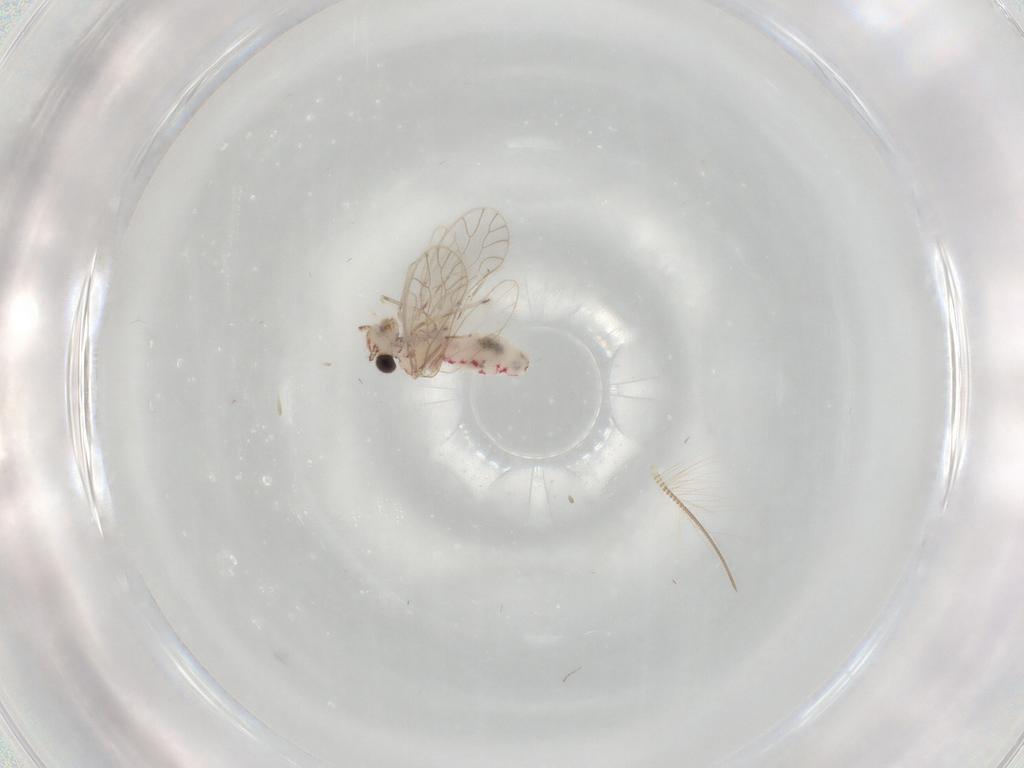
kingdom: Animalia
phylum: Arthropoda
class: Insecta
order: Psocodea
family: Caeciliusidae
